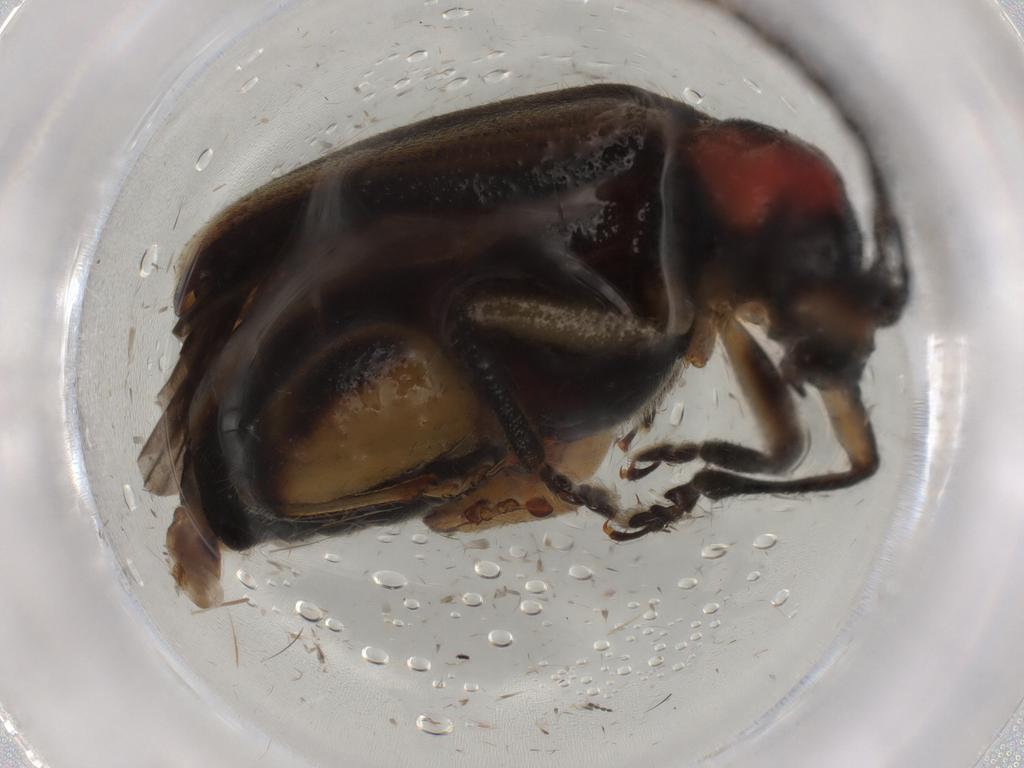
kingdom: Animalia
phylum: Arthropoda
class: Insecta
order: Coleoptera
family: Chrysomelidae
